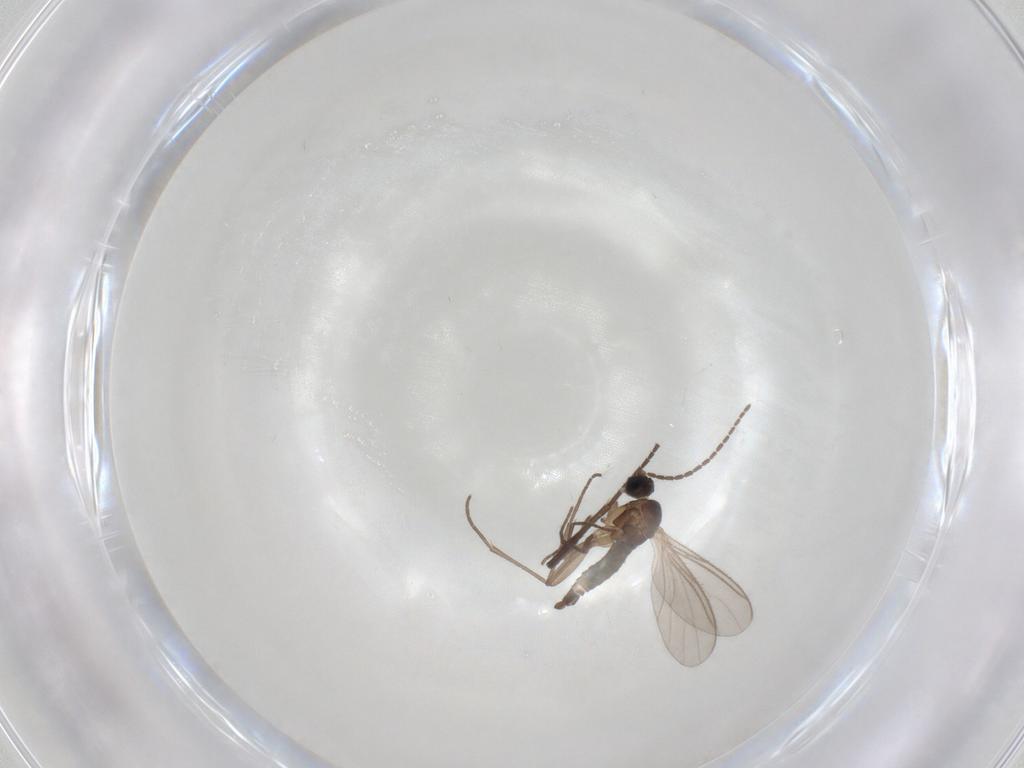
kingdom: Animalia
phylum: Arthropoda
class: Insecta
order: Diptera
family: Sciaridae
